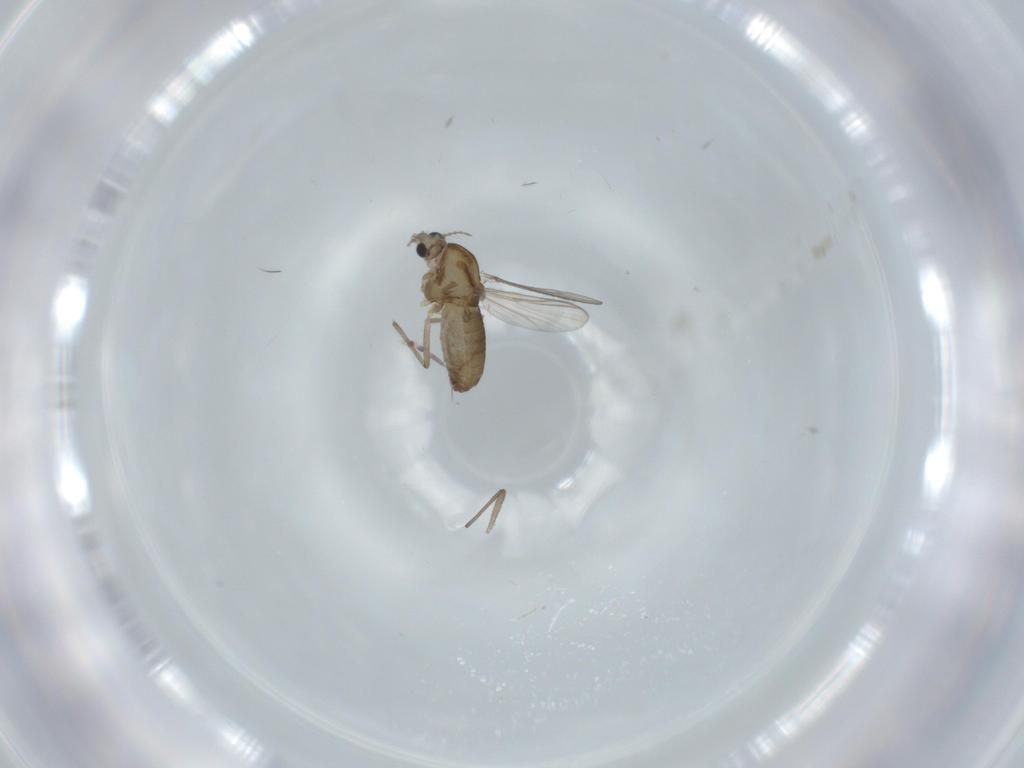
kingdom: Animalia
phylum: Arthropoda
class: Insecta
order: Diptera
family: Chironomidae
